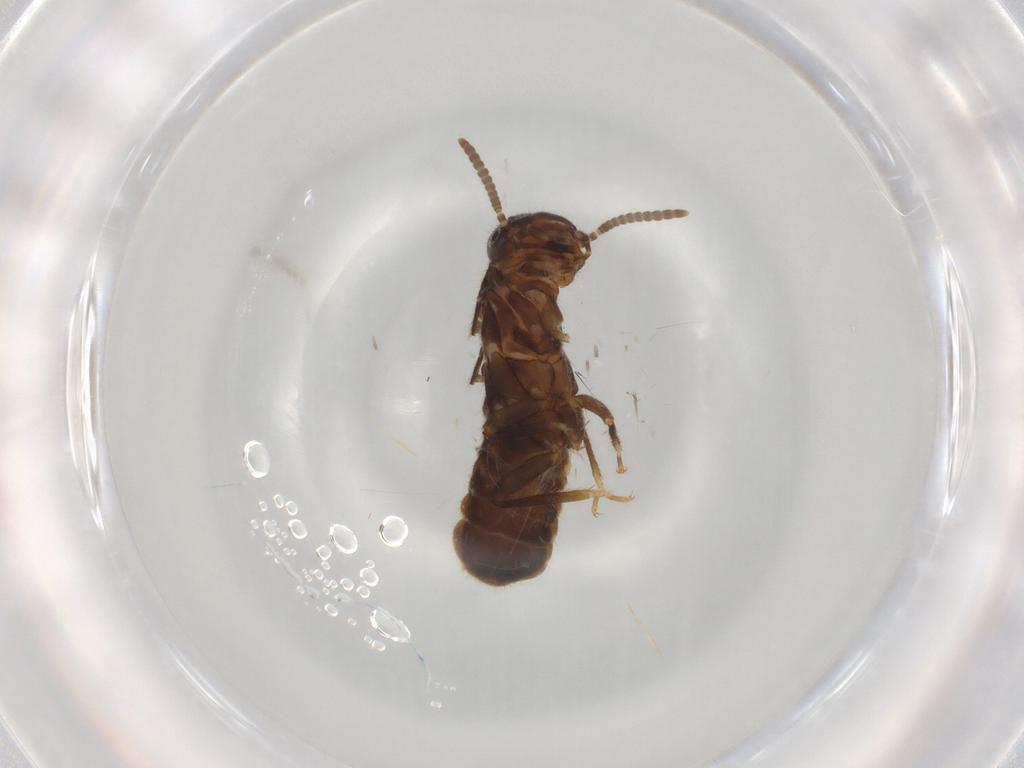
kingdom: Animalia
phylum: Arthropoda
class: Insecta
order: Blattodea
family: Termitidae
